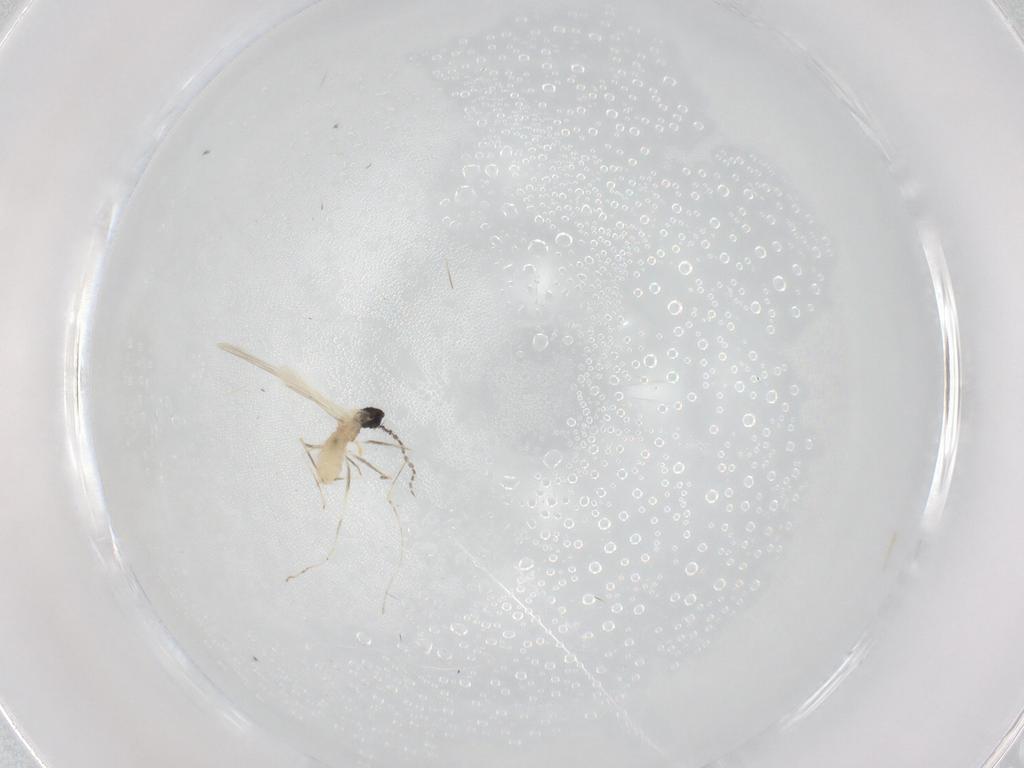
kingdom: Animalia
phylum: Arthropoda
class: Insecta
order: Diptera
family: Cecidomyiidae
